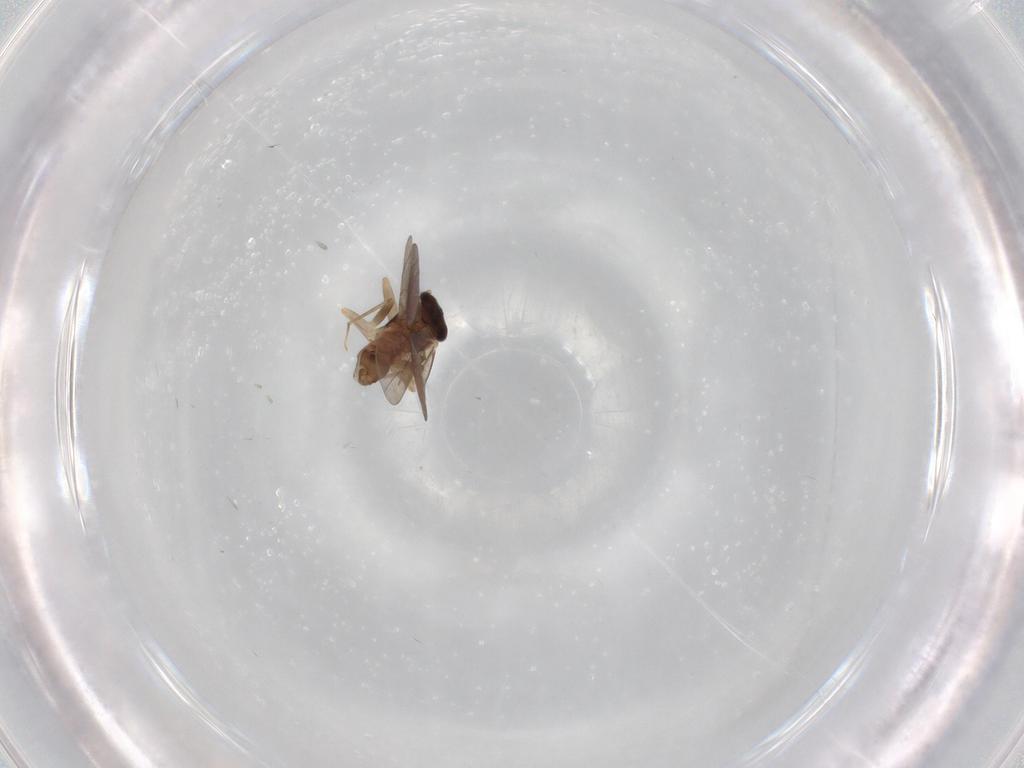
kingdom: Animalia
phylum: Arthropoda
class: Insecta
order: Psocodea
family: Lepidopsocidae
